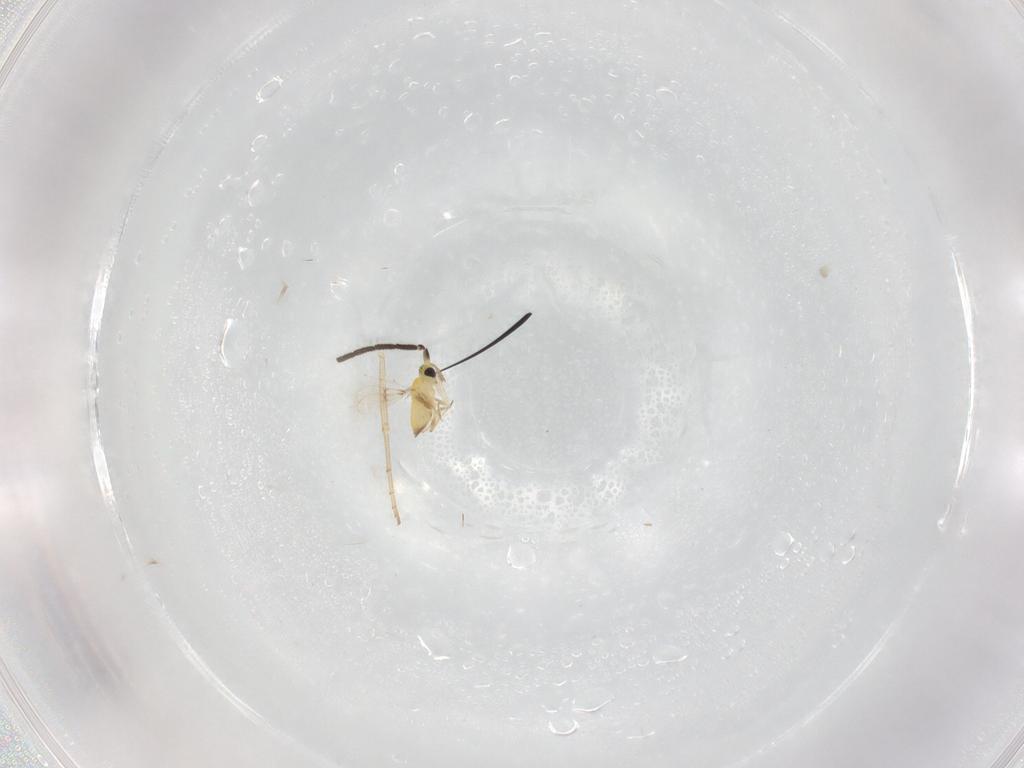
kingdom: Animalia
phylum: Arthropoda
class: Insecta
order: Hymenoptera
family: Pteromalidae
